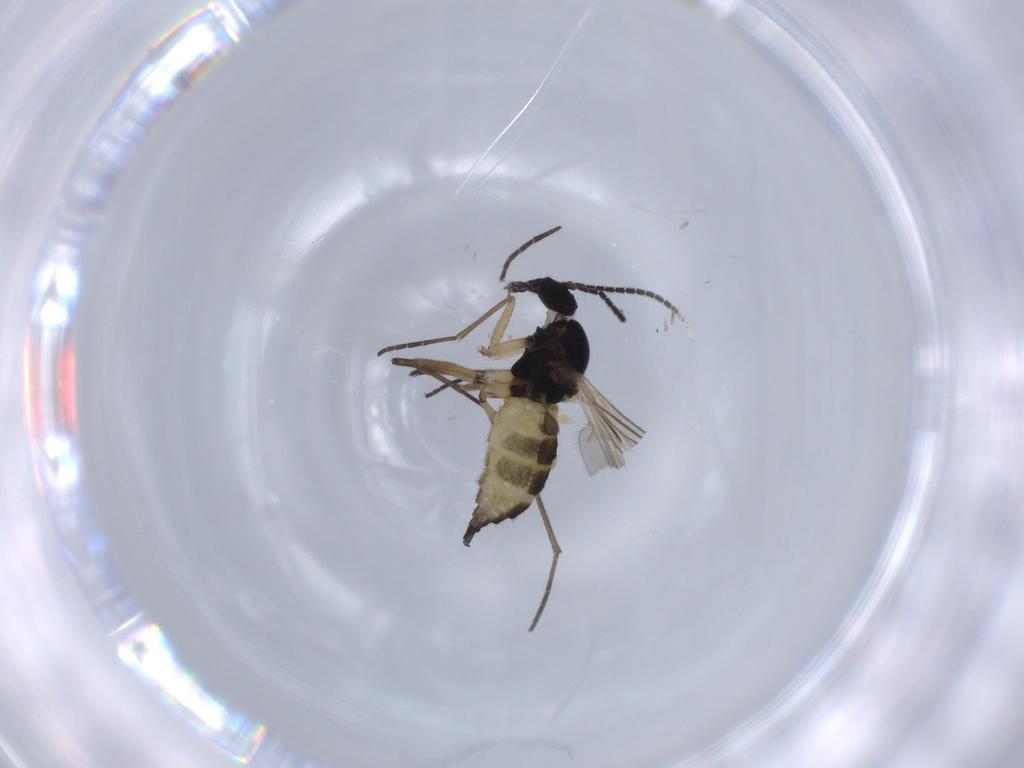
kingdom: Animalia
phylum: Arthropoda
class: Insecta
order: Diptera
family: Sciaridae
